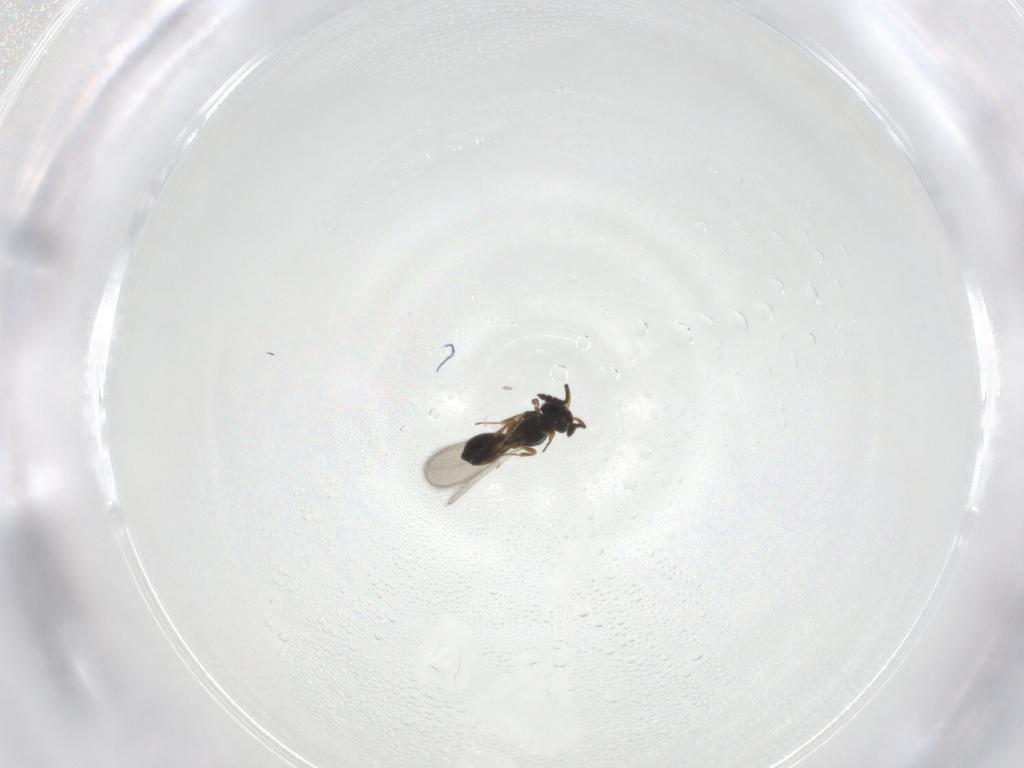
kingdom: Animalia
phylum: Arthropoda
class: Insecta
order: Hymenoptera
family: Scelionidae
